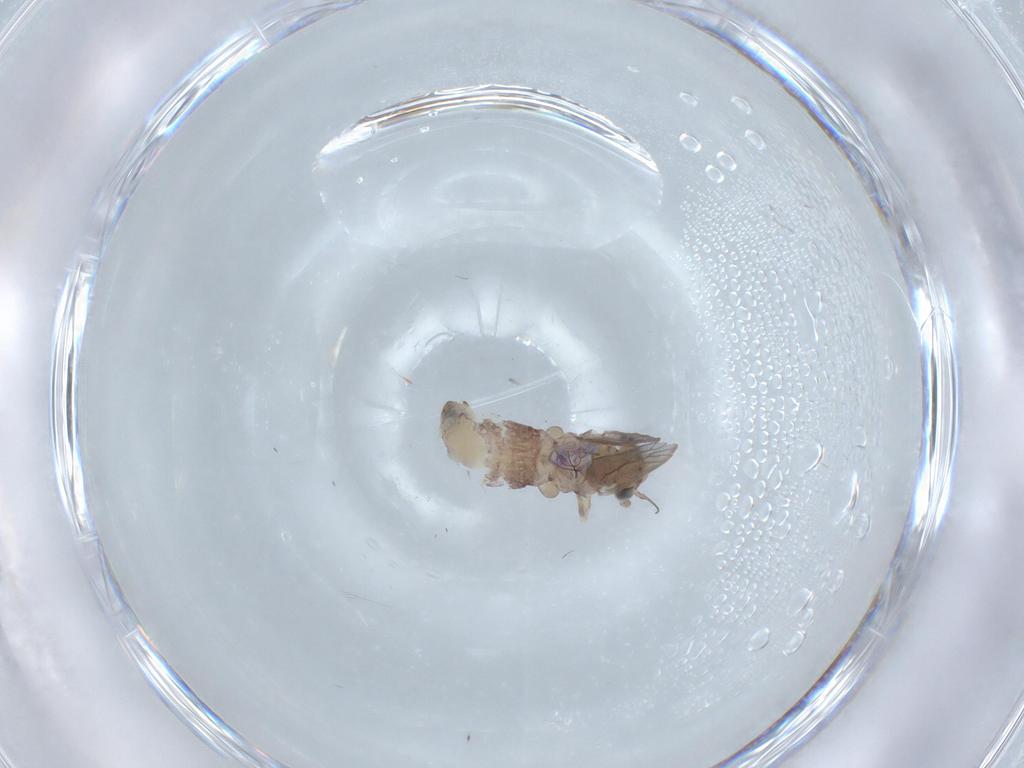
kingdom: Animalia
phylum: Arthropoda
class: Insecta
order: Psocodea
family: Lepidopsocidae
